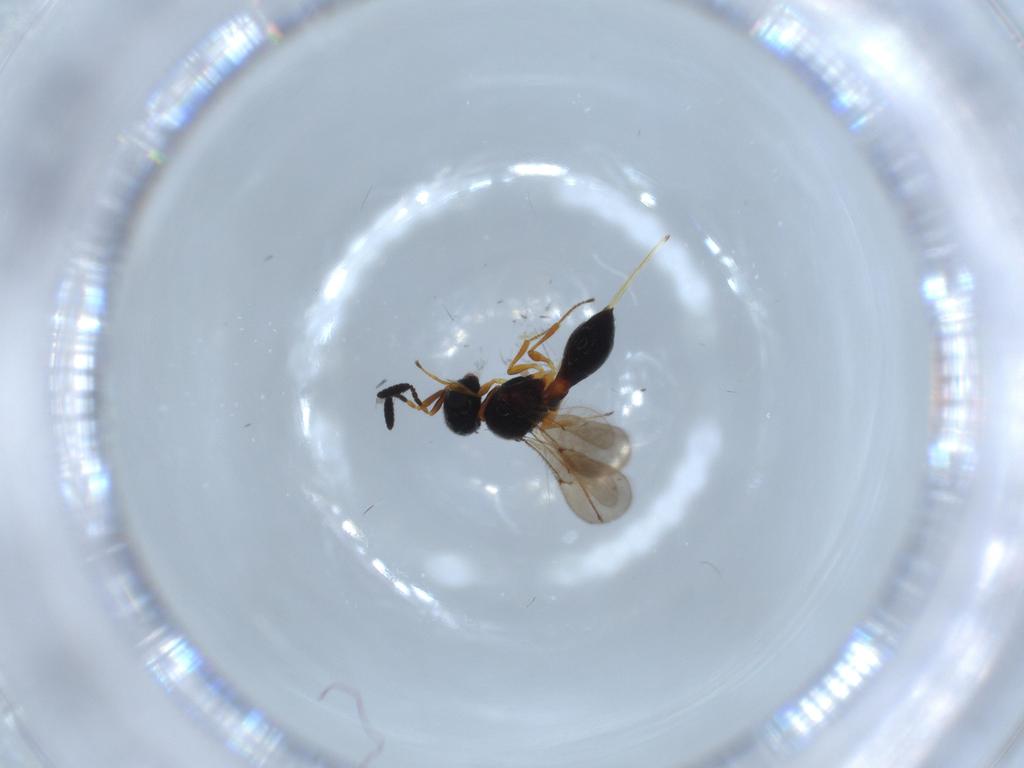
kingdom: Animalia
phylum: Arthropoda
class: Insecta
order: Hymenoptera
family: Scelionidae
